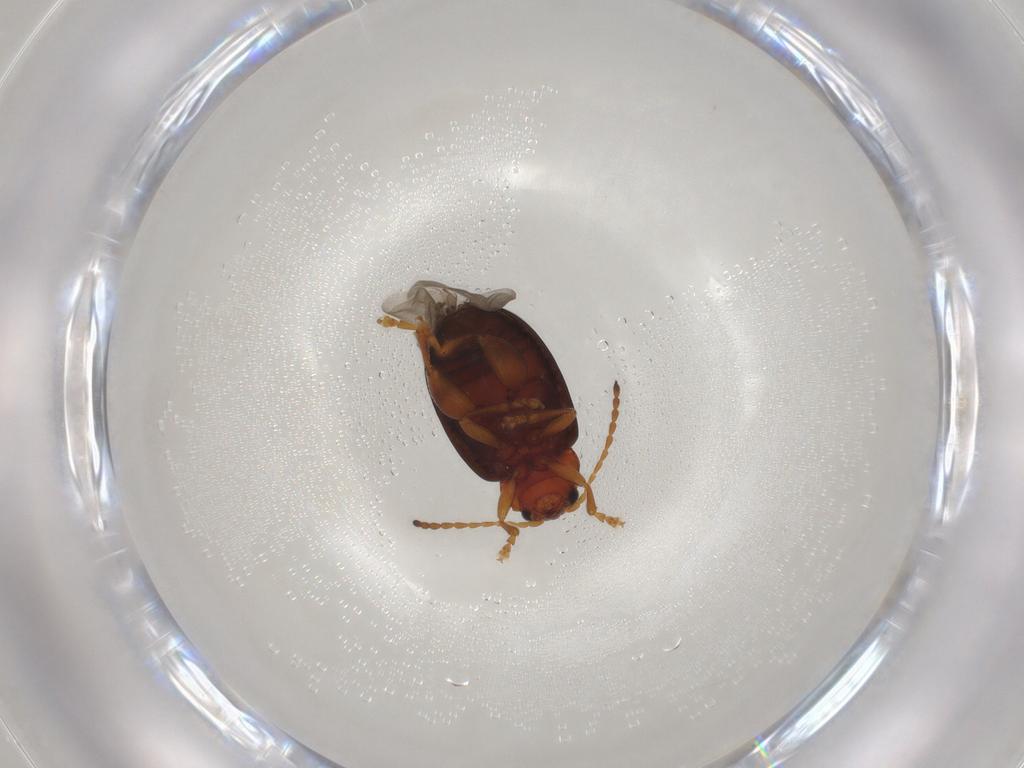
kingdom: Animalia
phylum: Arthropoda
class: Insecta
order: Coleoptera
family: Chrysomelidae
